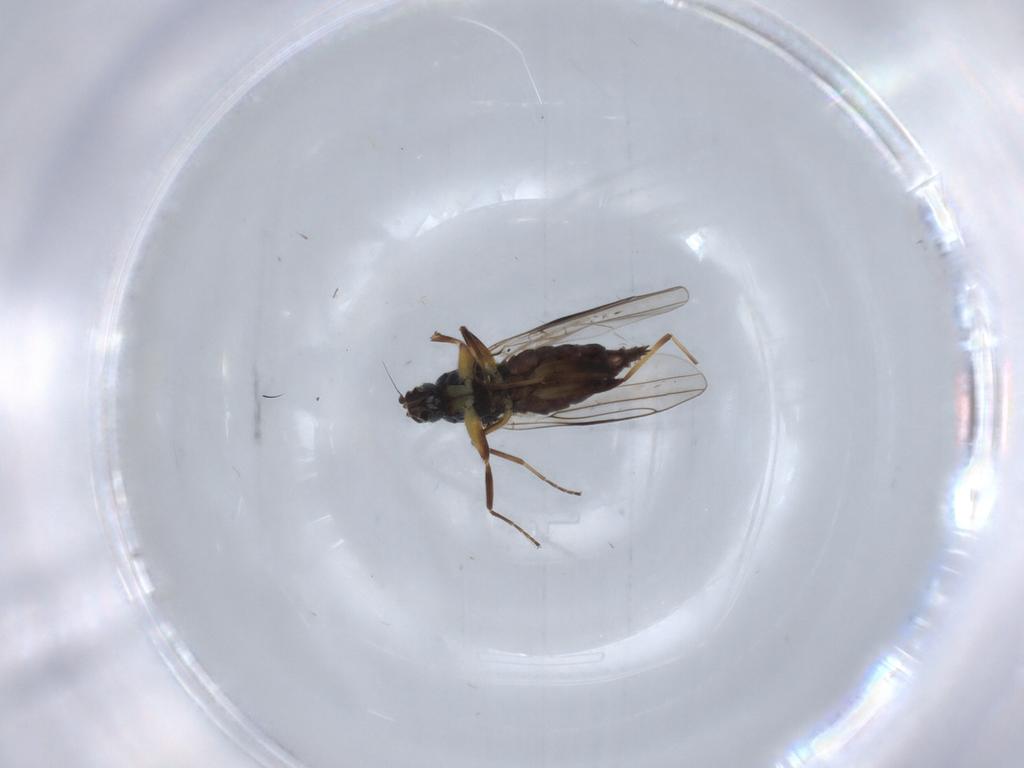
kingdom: Animalia
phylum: Arthropoda
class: Insecta
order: Diptera
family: Hybotidae
